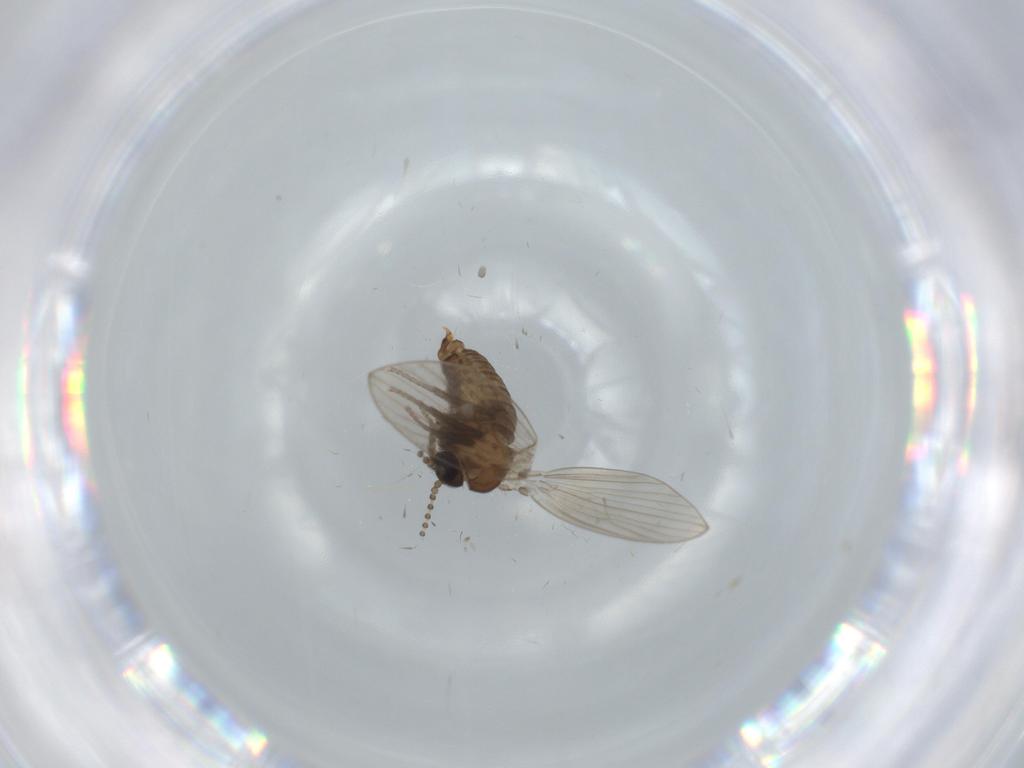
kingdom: Animalia
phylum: Arthropoda
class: Insecta
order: Diptera
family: Psychodidae
